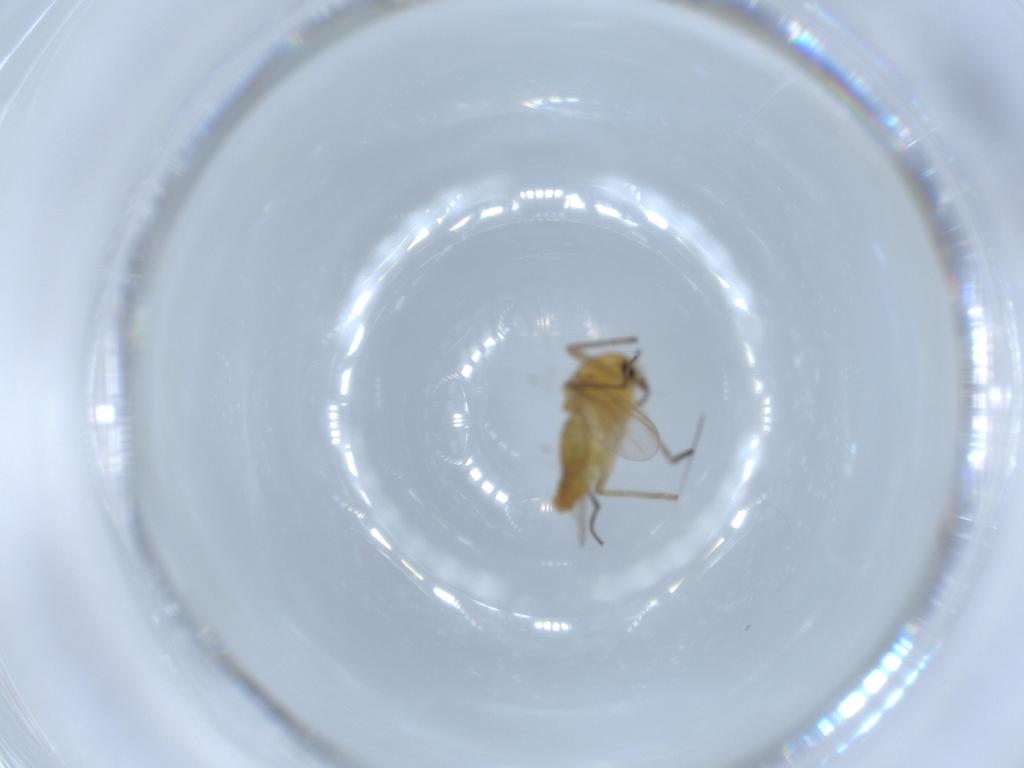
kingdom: Animalia
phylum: Arthropoda
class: Insecta
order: Diptera
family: Chironomidae
